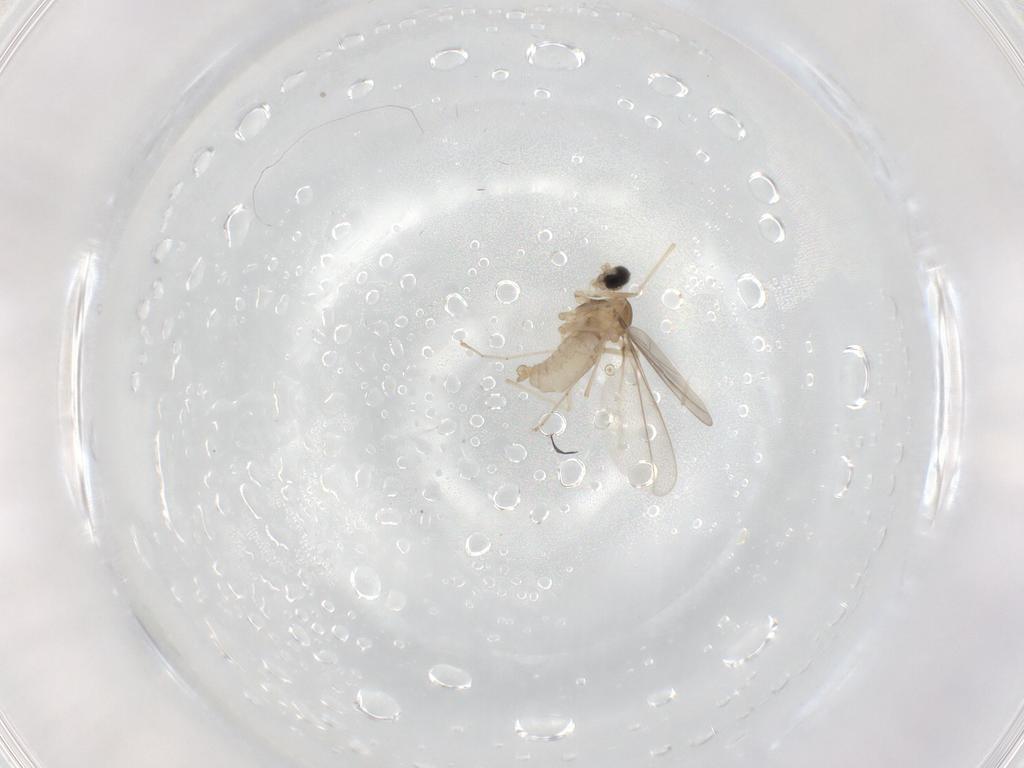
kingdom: Animalia
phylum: Arthropoda
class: Insecta
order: Diptera
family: Cecidomyiidae
